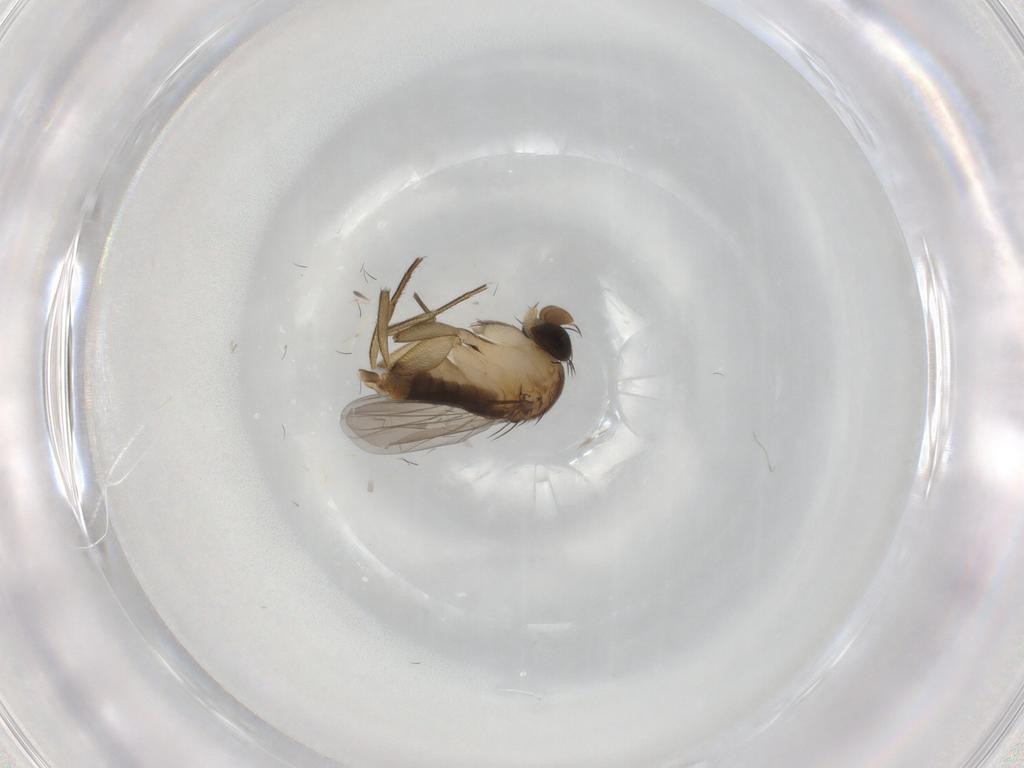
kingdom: Animalia
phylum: Arthropoda
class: Insecta
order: Diptera
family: Phoridae
